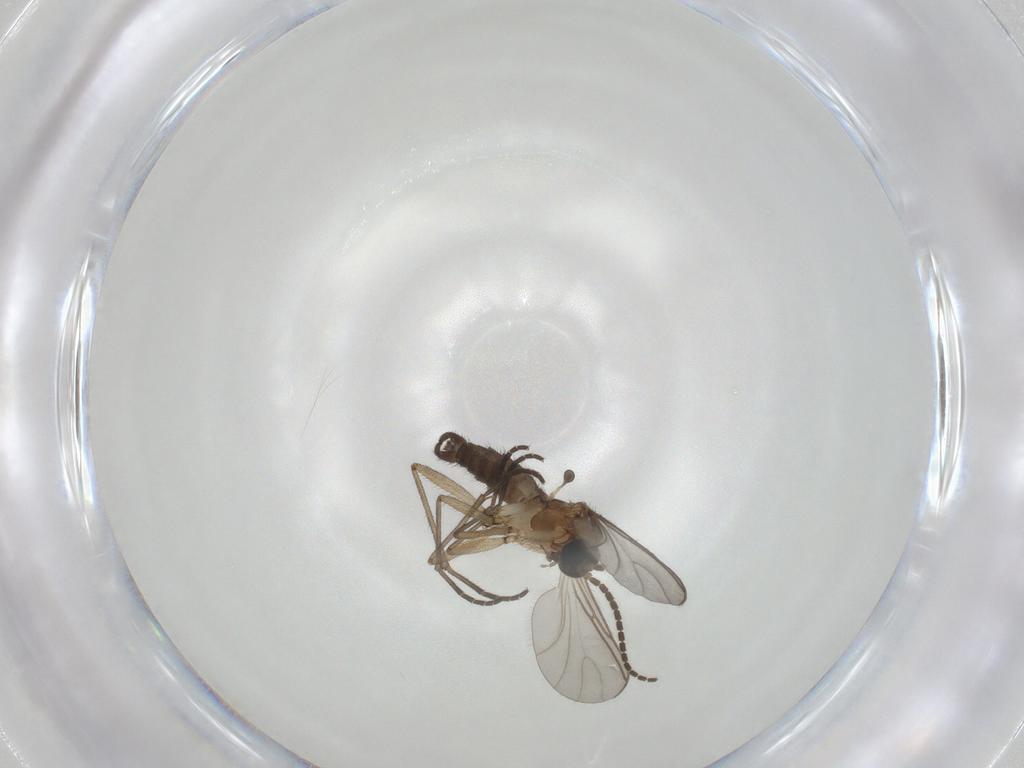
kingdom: Animalia
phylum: Arthropoda
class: Insecta
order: Diptera
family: Sciaridae
